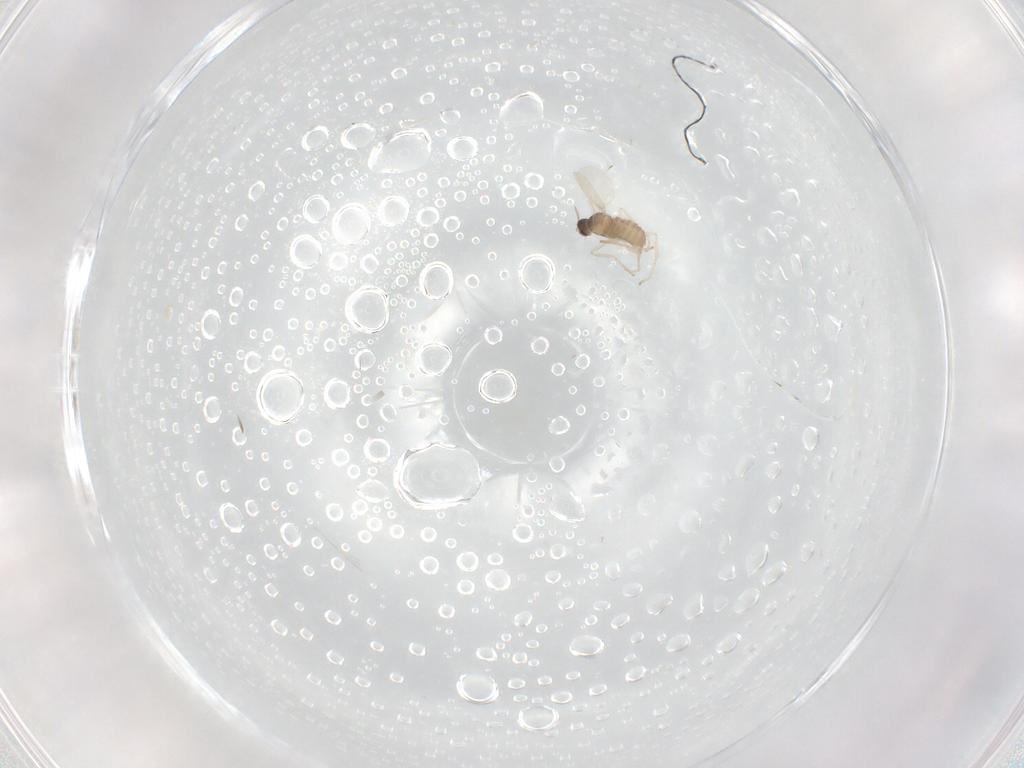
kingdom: Animalia
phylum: Arthropoda
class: Insecta
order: Diptera
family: Cecidomyiidae
